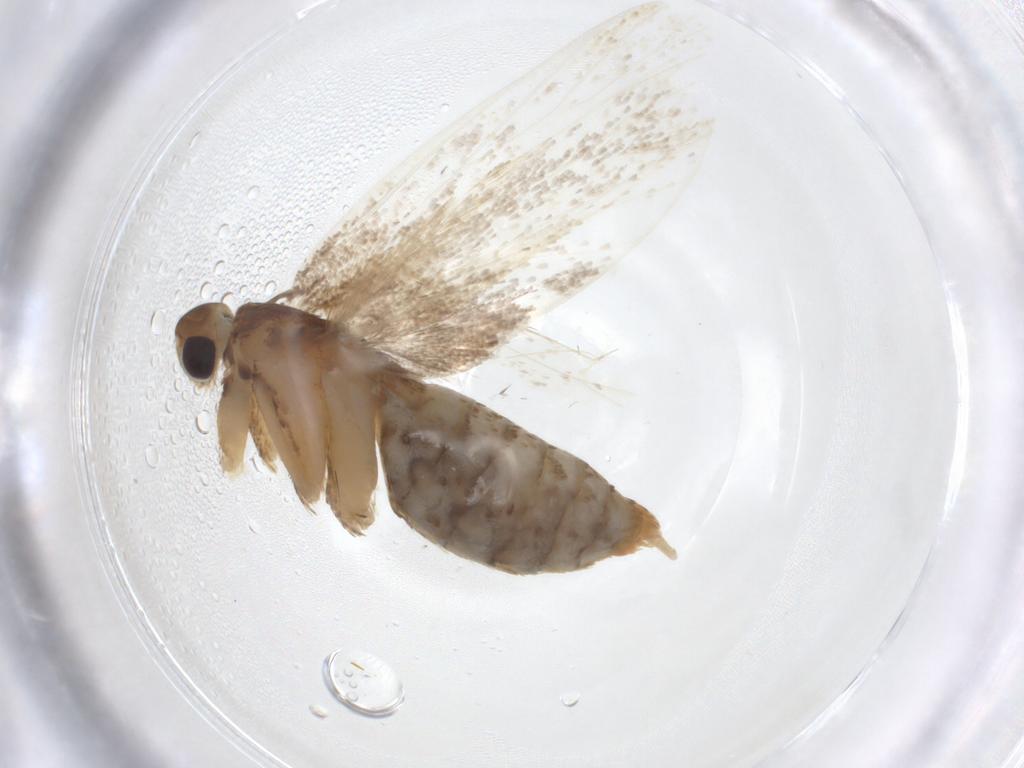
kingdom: Animalia
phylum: Arthropoda
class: Insecta
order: Lepidoptera
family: Lecithoceridae
